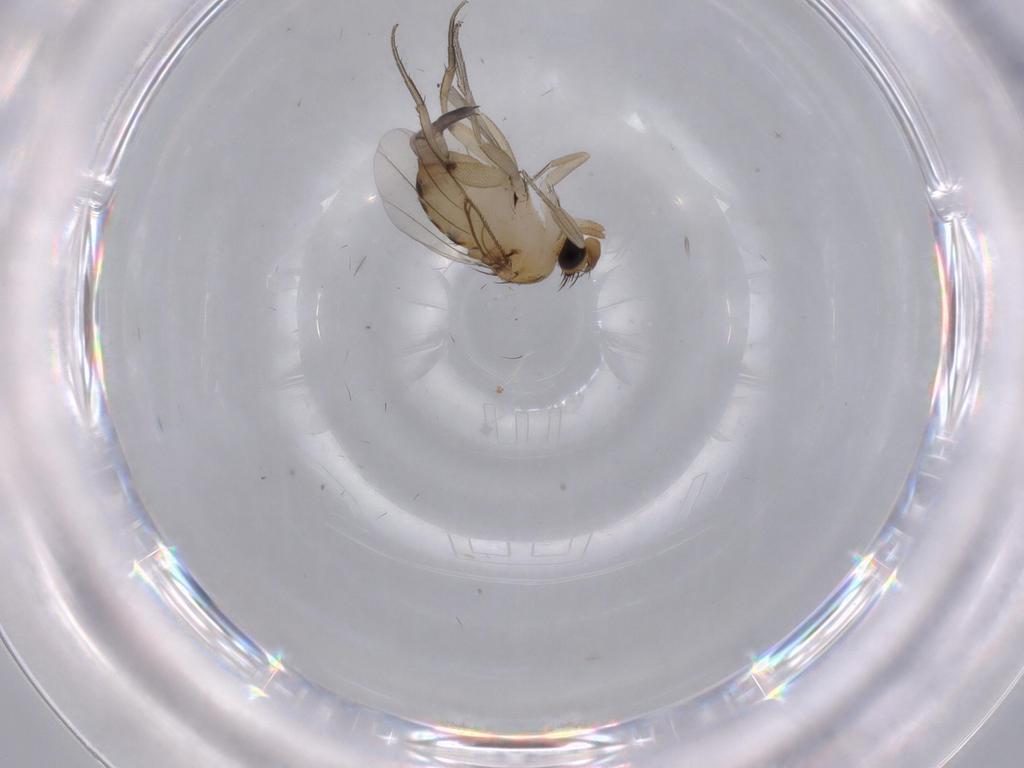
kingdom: Animalia
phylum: Arthropoda
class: Insecta
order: Diptera
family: Phoridae
